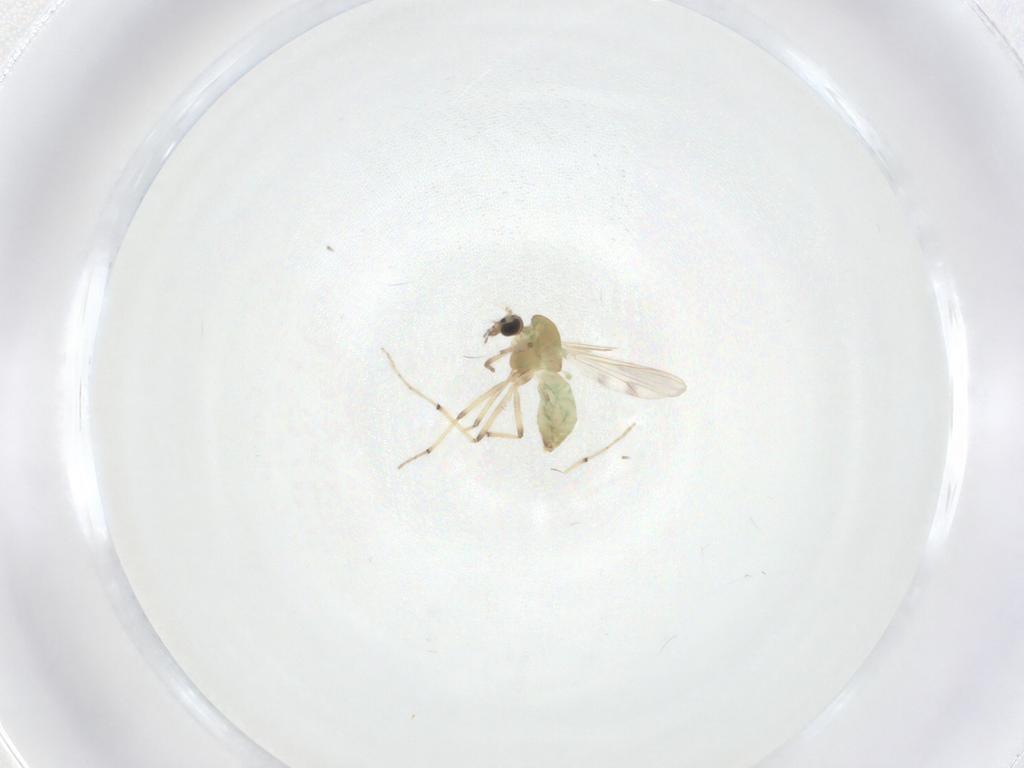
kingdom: Animalia
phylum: Arthropoda
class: Insecta
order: Diptera
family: Chironomidae
